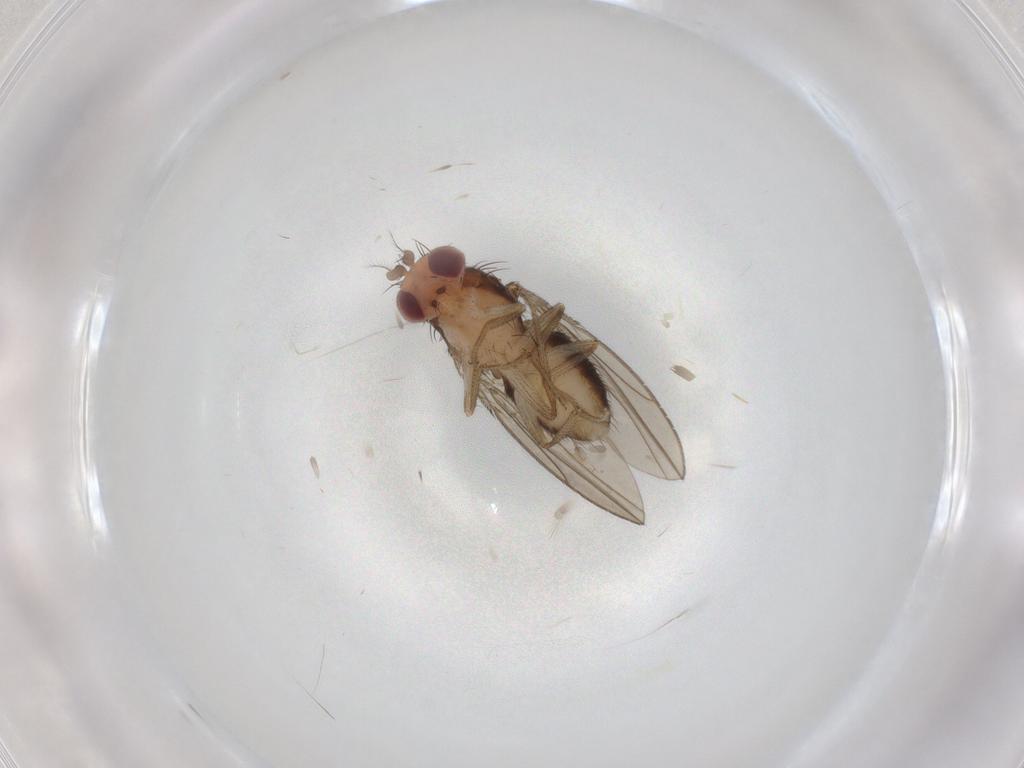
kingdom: Animalia
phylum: Arthropoda
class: Insecta
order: Diptera
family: Drosophilidae
